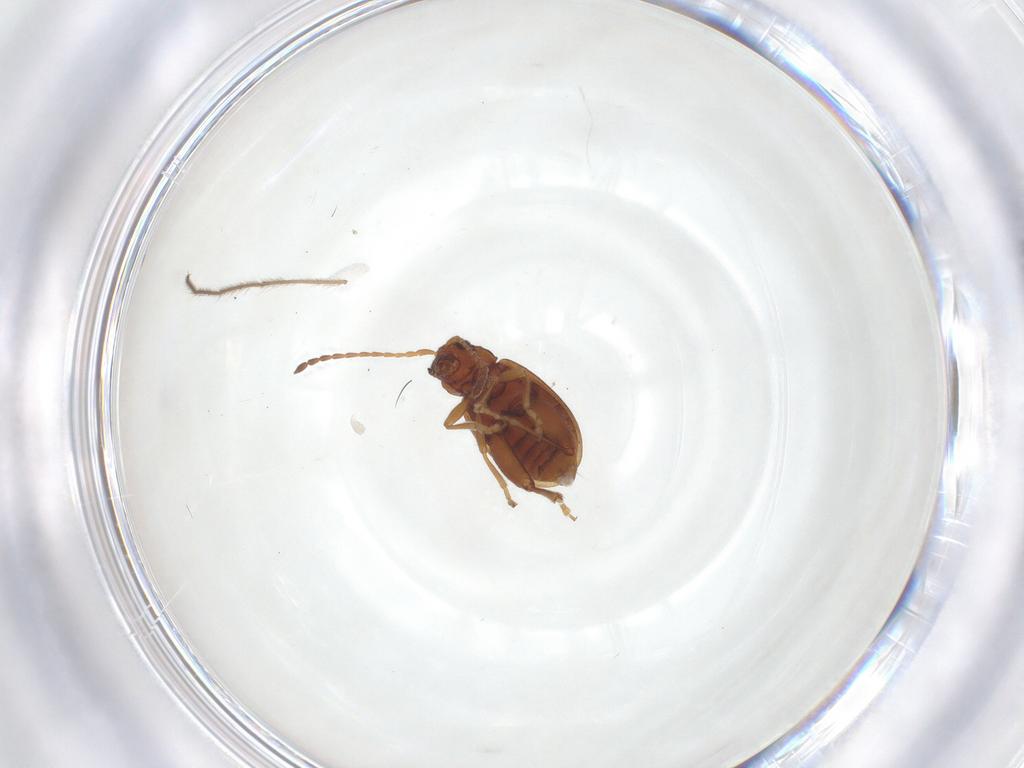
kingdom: Animalia
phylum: Arthropoda
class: Insecta
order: Coleoptera
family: Chrysomelidae
